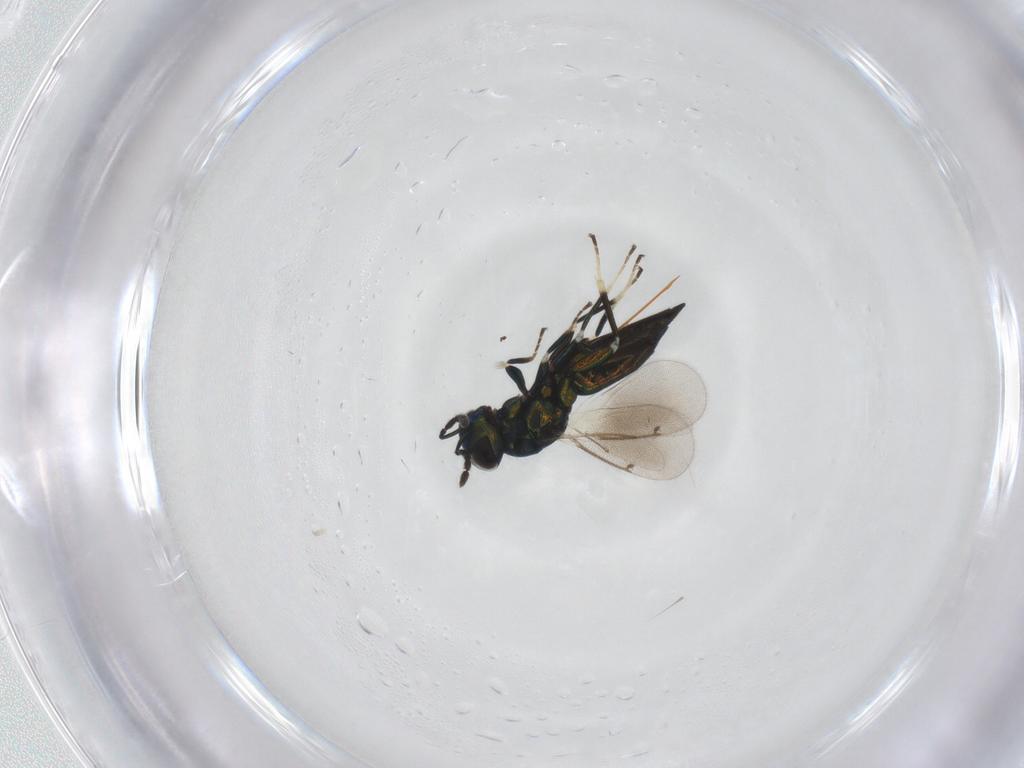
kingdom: Animalia
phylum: Arthropoda
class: Insecta
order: Hymenoptera
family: Eulophidae
